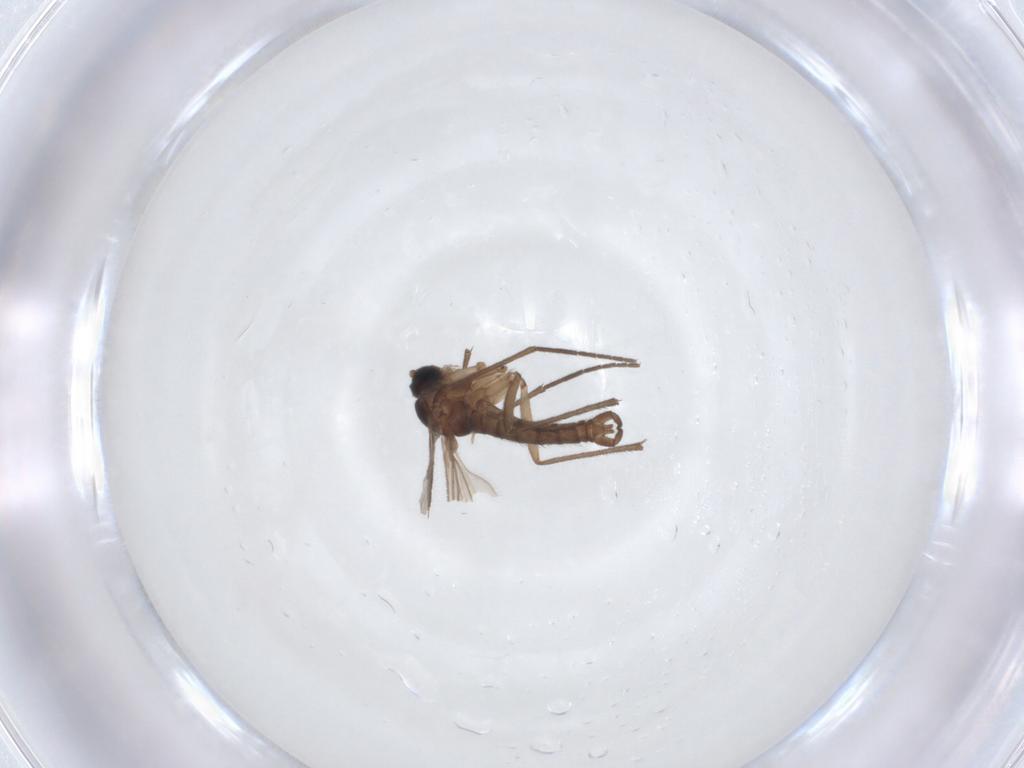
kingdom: Animalia
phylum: Arthropoda
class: Insecta
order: Diptera
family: Sciaridae
